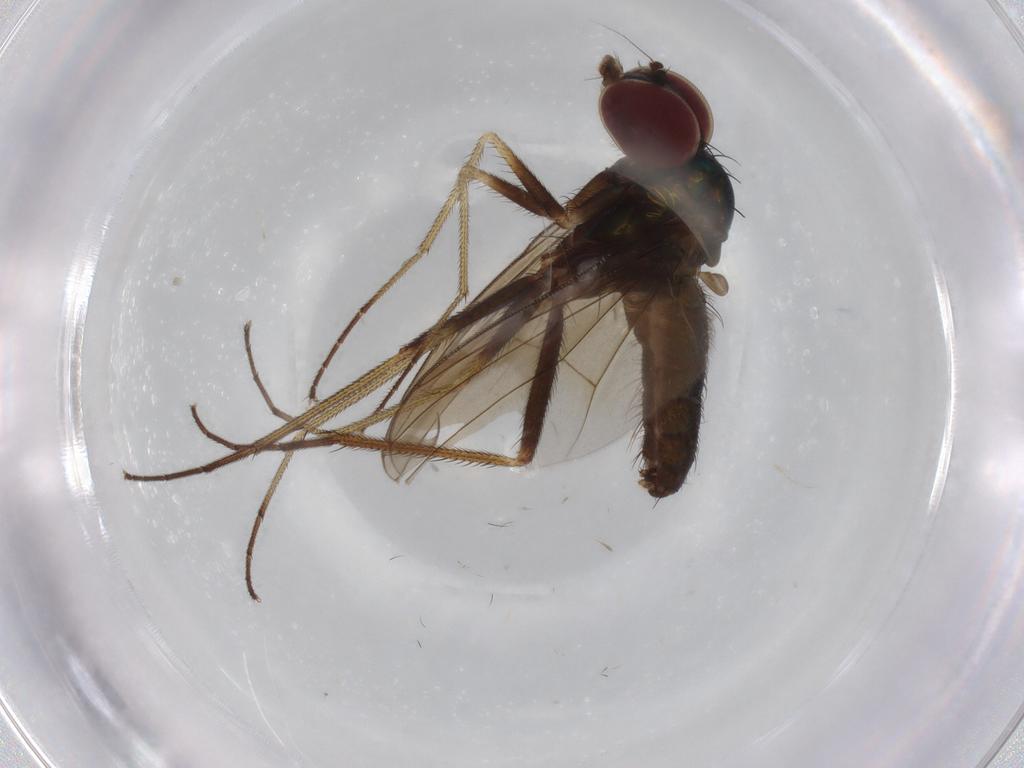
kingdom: Animalia
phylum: Arthropoda
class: Insecta
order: Diptera
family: Dolichopodidae
